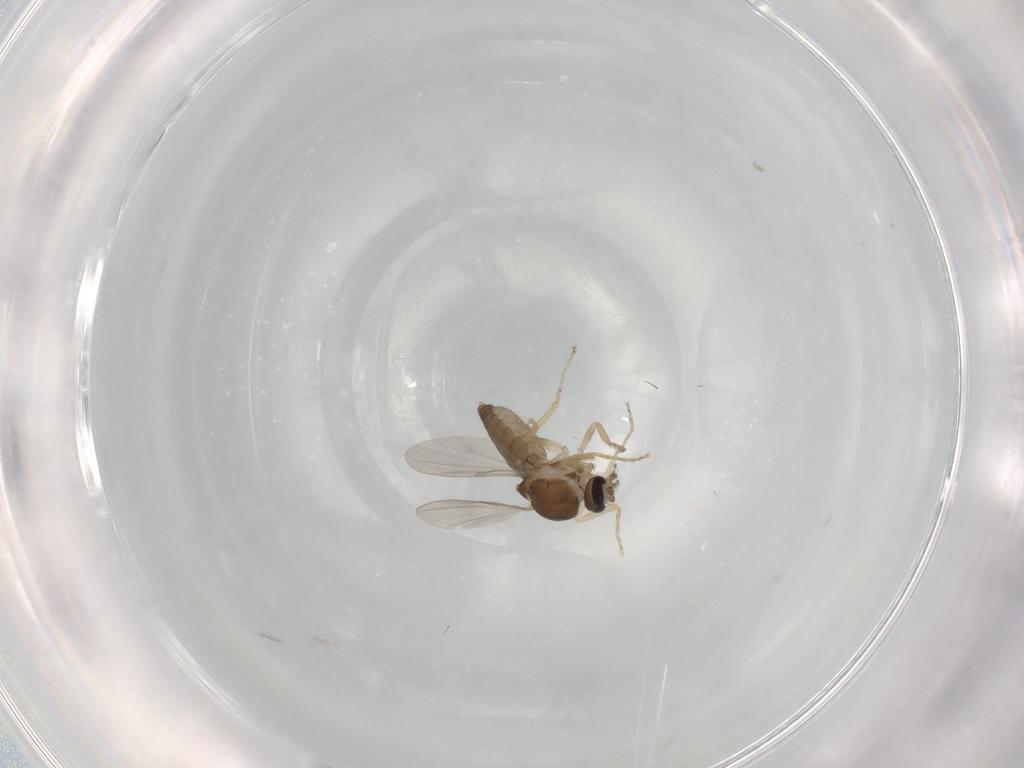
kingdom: Animalia
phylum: Arthropoda
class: Insecta
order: Diptera
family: Ceratopogonidae
